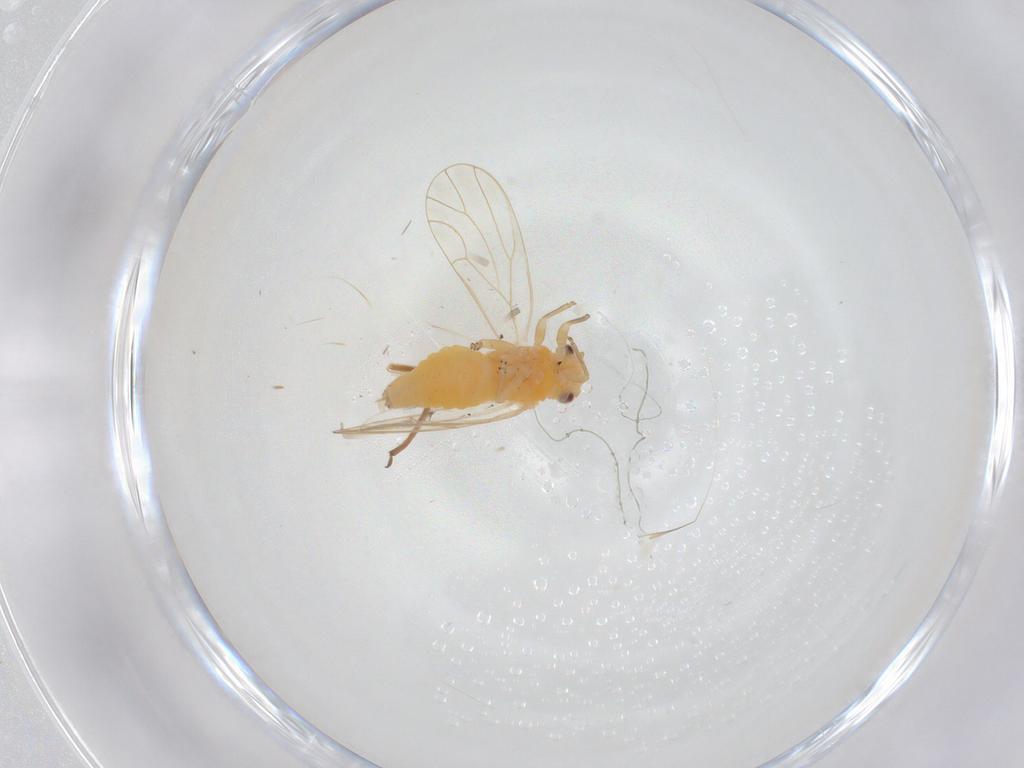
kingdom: Animalia
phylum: Arthropoda
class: Insecta
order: Hemiptera
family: Aphididae
